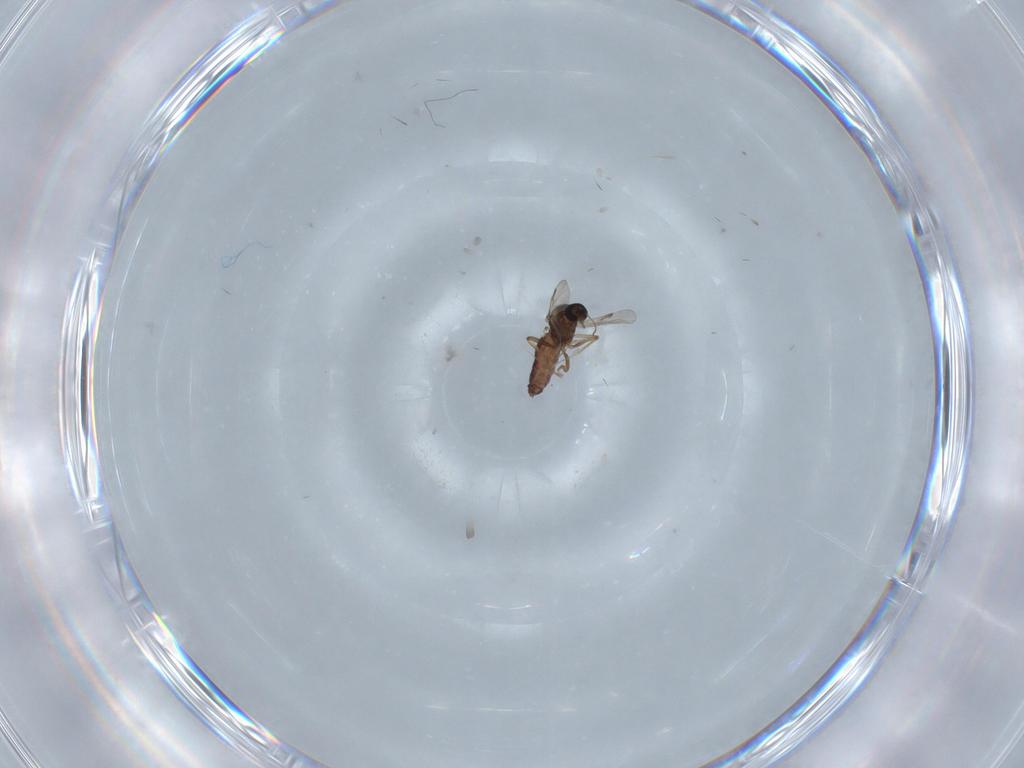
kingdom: Animalia
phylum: Arthropoda
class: Insecta
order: Diptera
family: Ceratopogonidae
